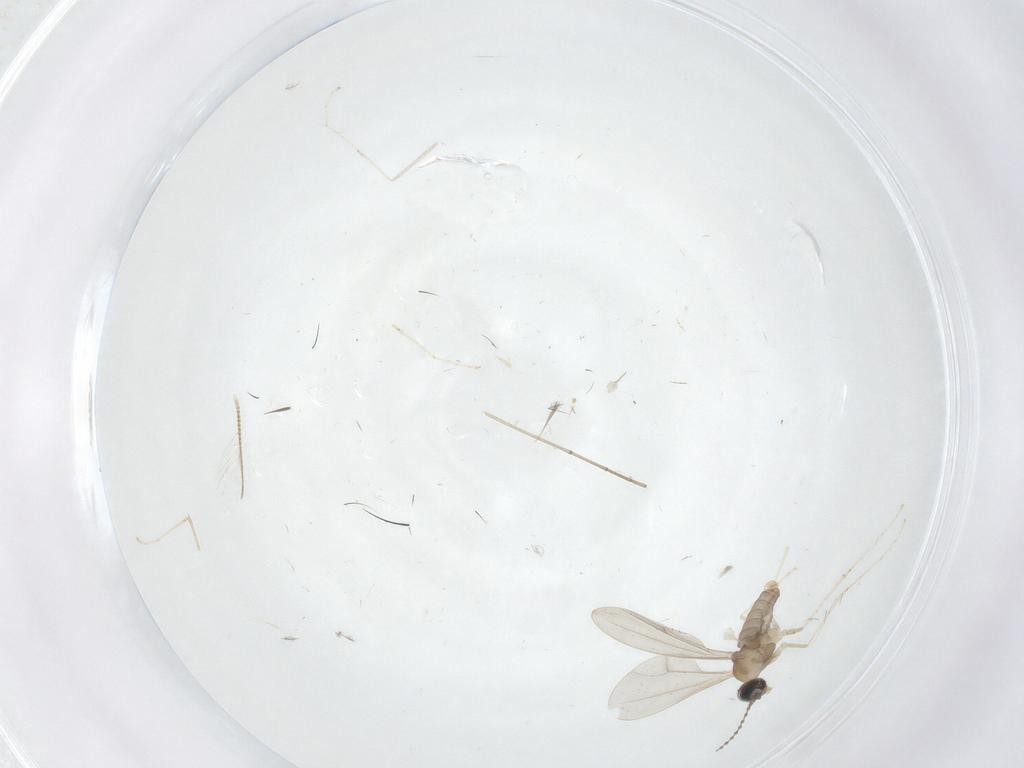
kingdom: Animalia
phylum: Arthropoda
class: Insecta
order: Diptera
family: Cecidomyiidae
